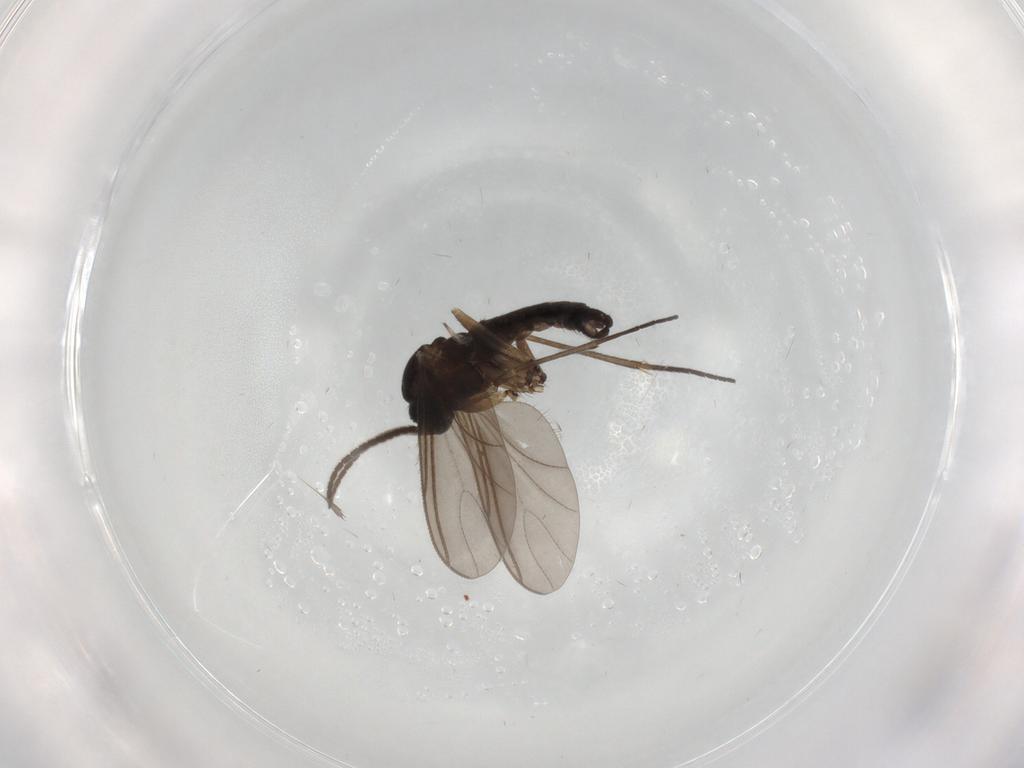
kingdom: Animalia
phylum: Arthropoda
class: Insecta
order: Diptera
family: Sciaridae
